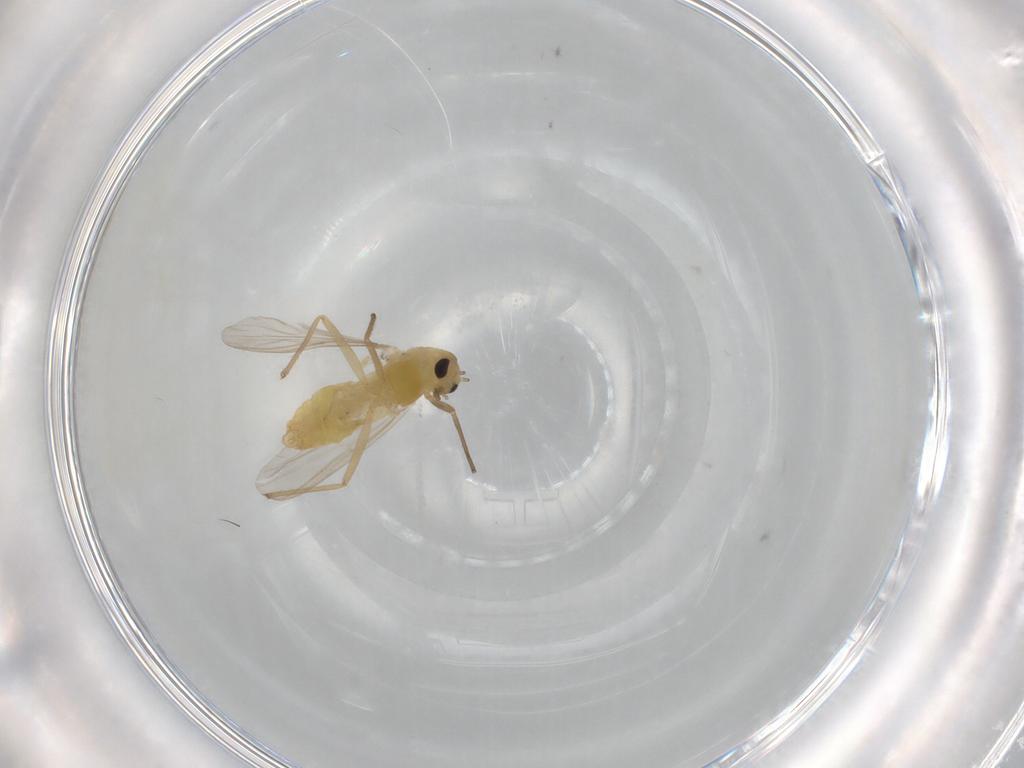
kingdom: Animalia
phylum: Arthropoda
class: Insecta
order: Diptera
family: Chironomidae
